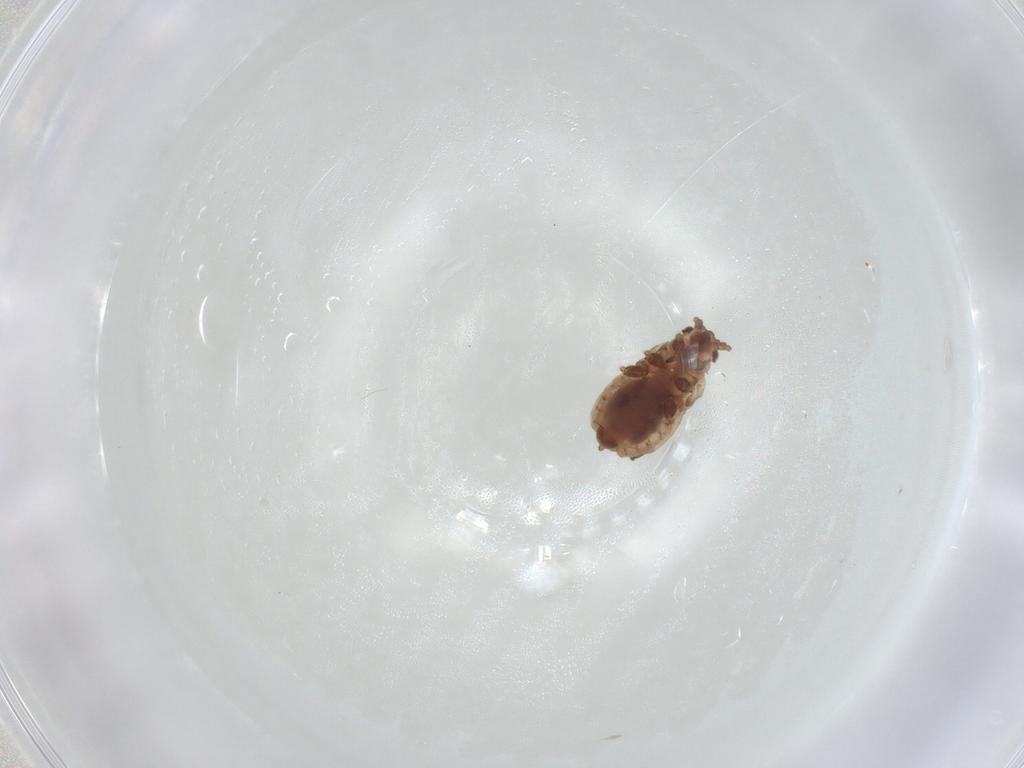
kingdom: Animalia
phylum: Arthropoda
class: Insecta
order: Hemiptera
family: Aphididae
